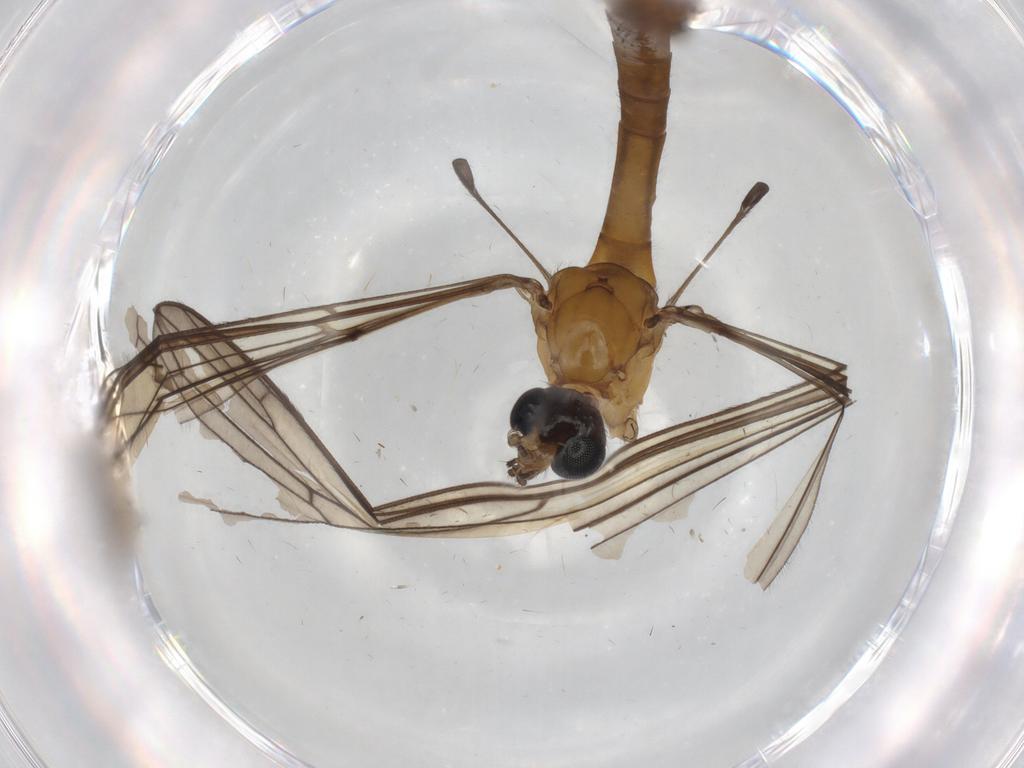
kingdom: Animalia
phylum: Arthropoda
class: Insecta
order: Diptera
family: Limoniidae
